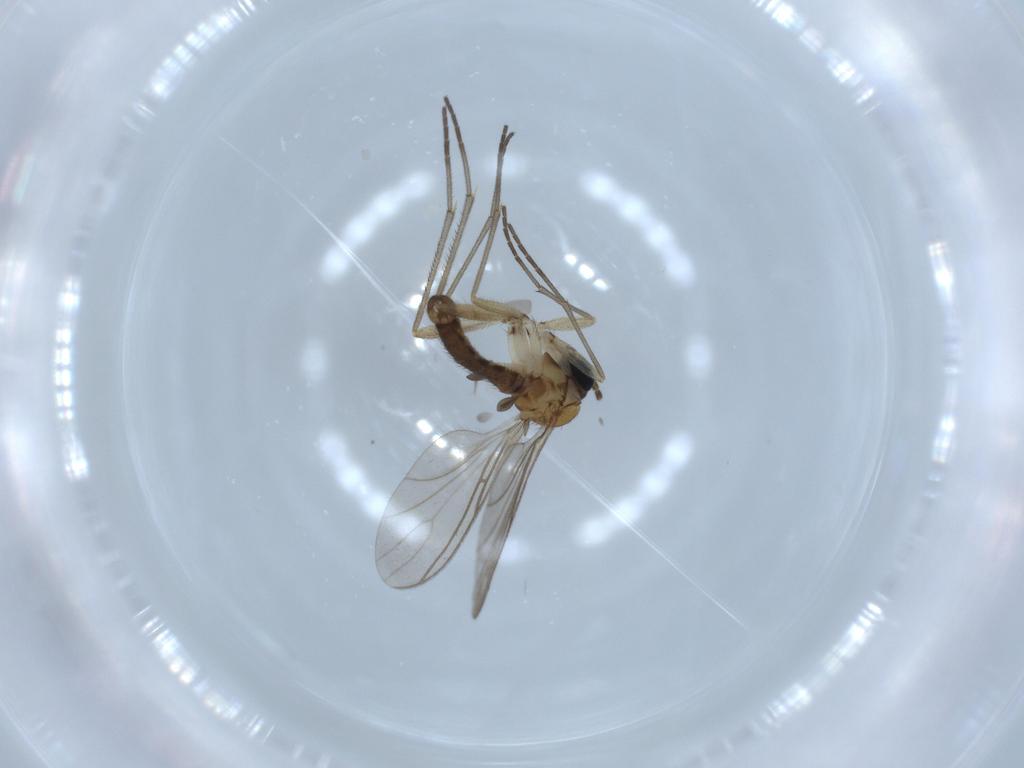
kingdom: Animalia
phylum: Arthropoda
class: Insecta
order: Diptera
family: Sciaridae
